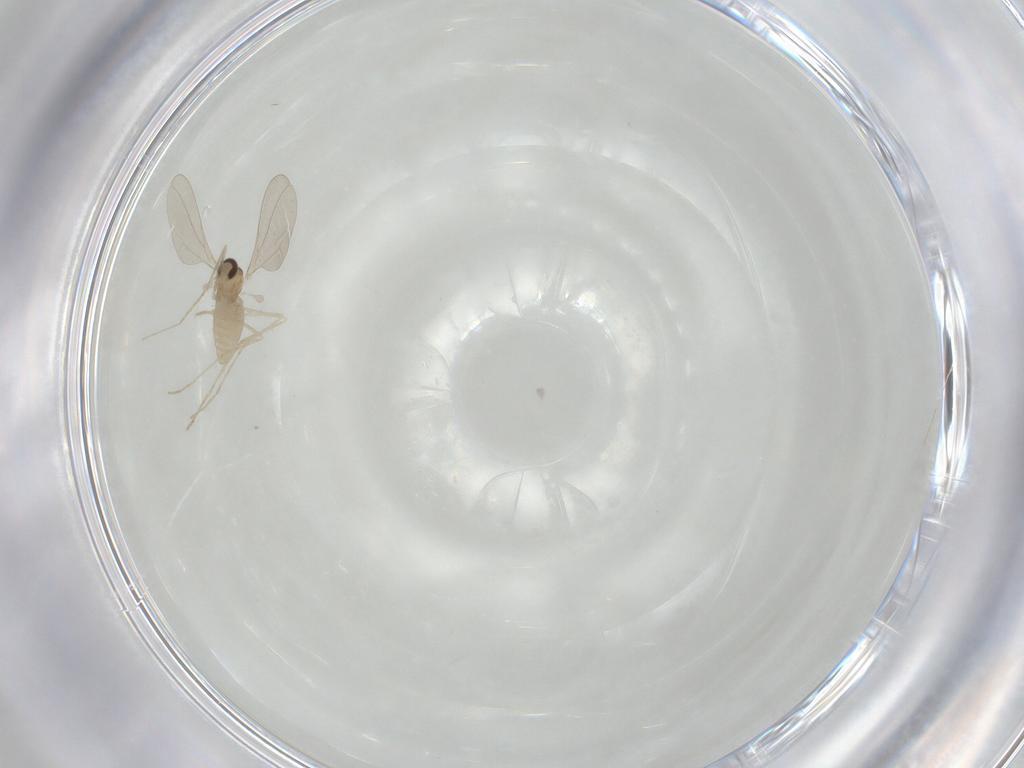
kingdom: Animalia
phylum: Arthropoda
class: Insecta
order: Diptera
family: Cecidomyiidae
